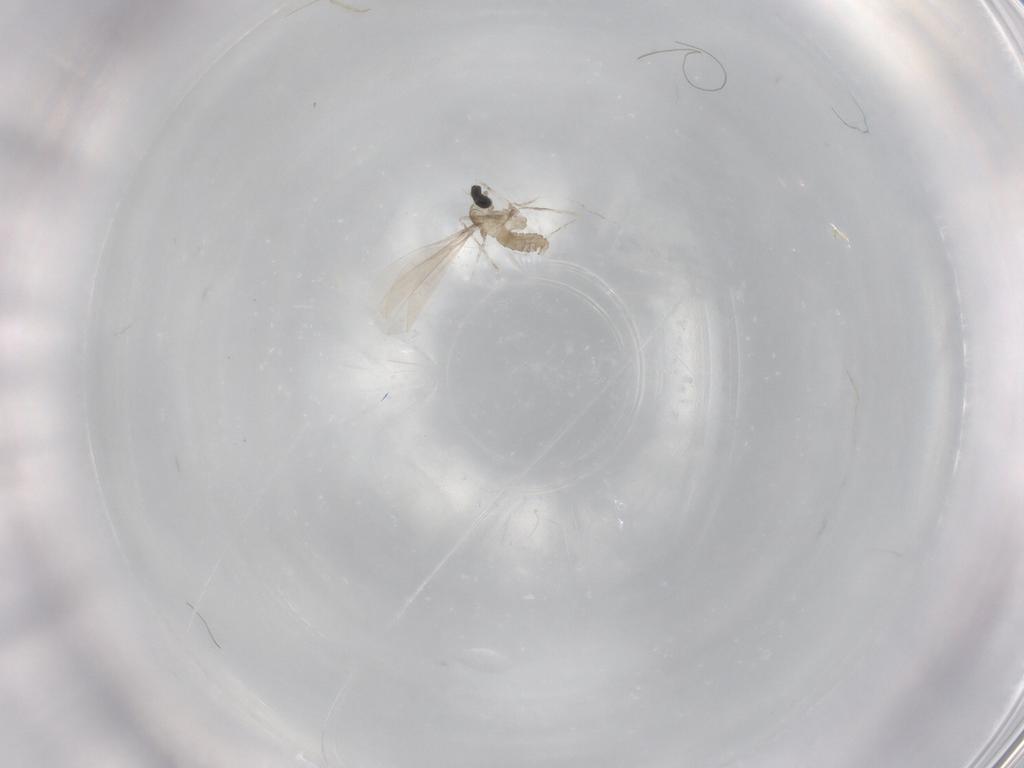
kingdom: Animalia
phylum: Arthropoda
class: Insecta
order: Diptera
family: Cecidomyiidae
